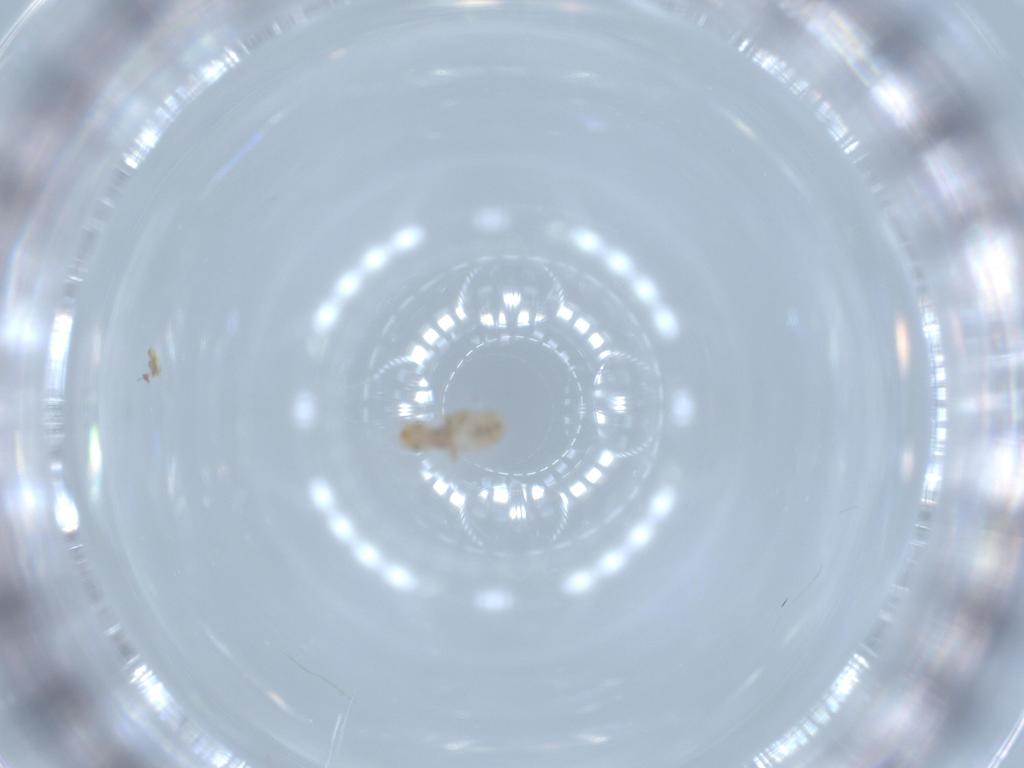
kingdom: Animalia
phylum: Arthropoda
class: Insecta
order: Psocodea
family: Liposcelididae
